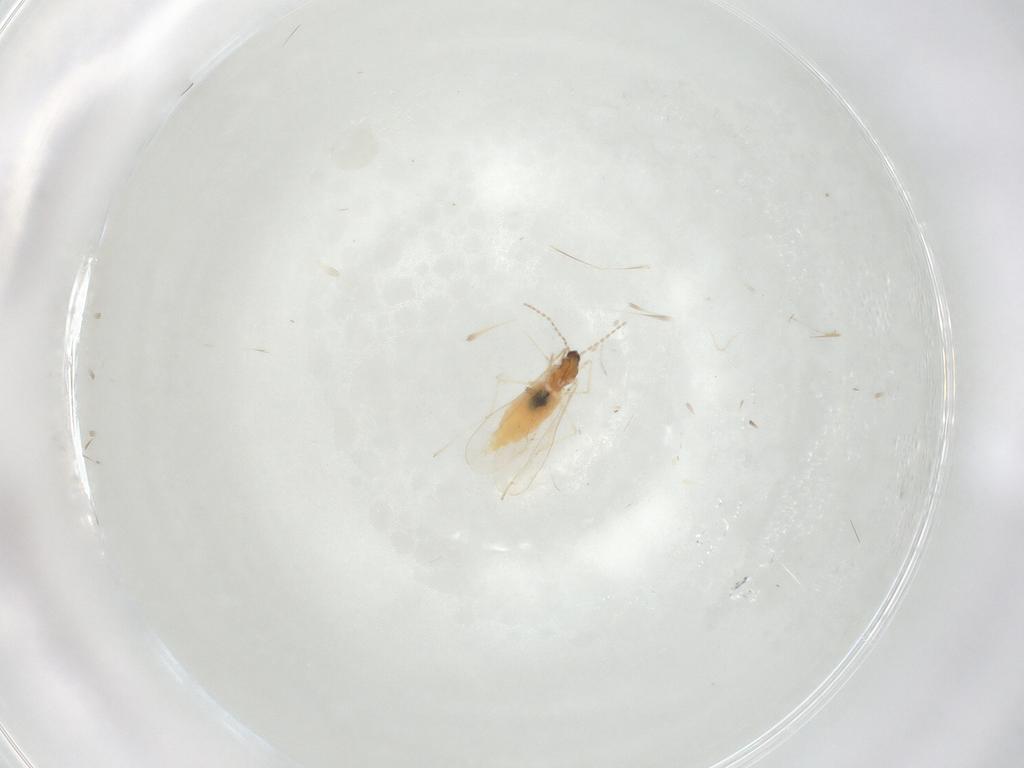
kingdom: Animalia
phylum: Arthropoda
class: Insecta
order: Diptera
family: Cecidomyiidae
